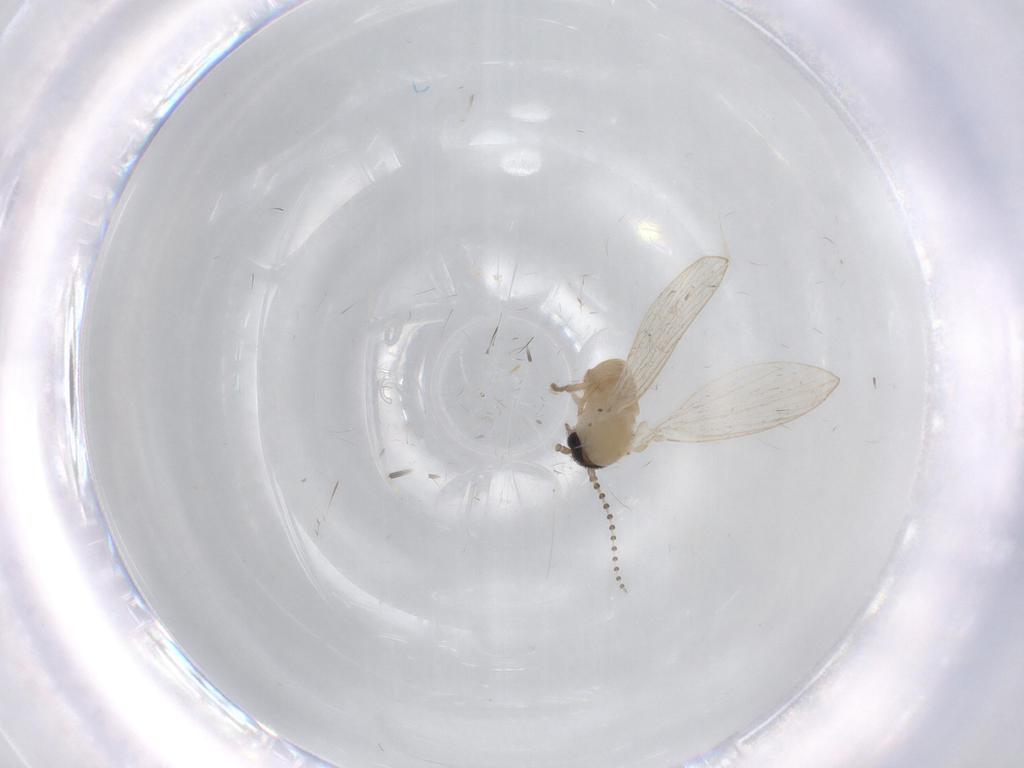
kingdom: Animalia
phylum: Arthropoda
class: Insecta
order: Diptera
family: Psychodidae
